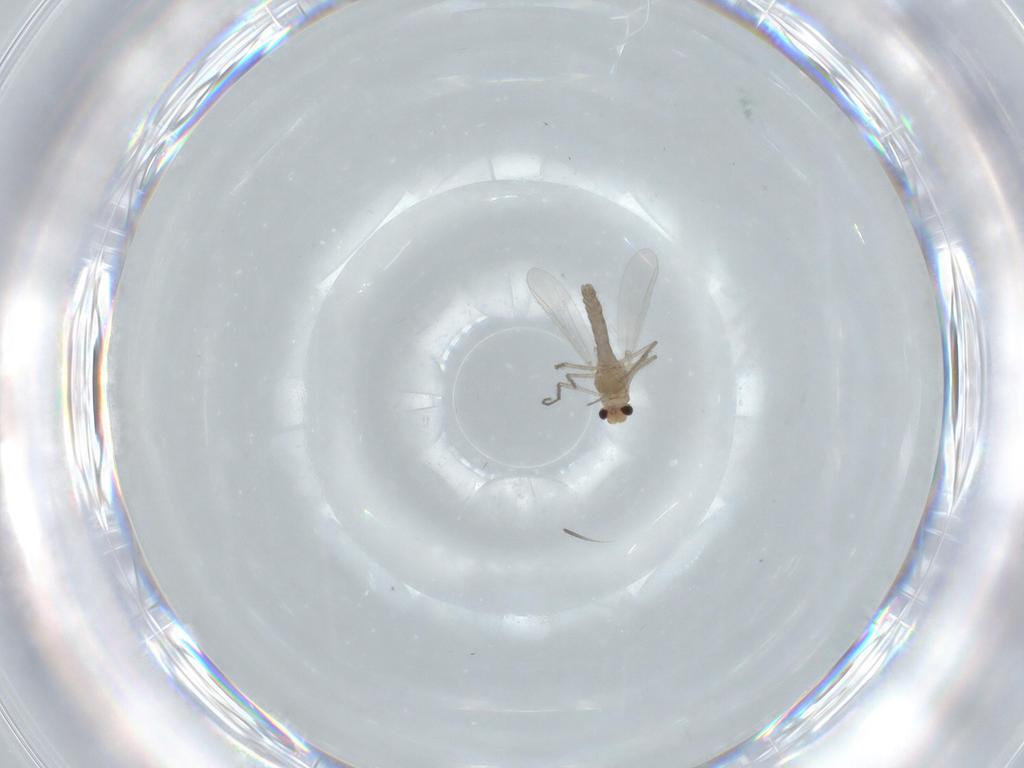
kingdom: Animalia
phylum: Arthropoda
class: Insecta
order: Diptera
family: Chironomidae
